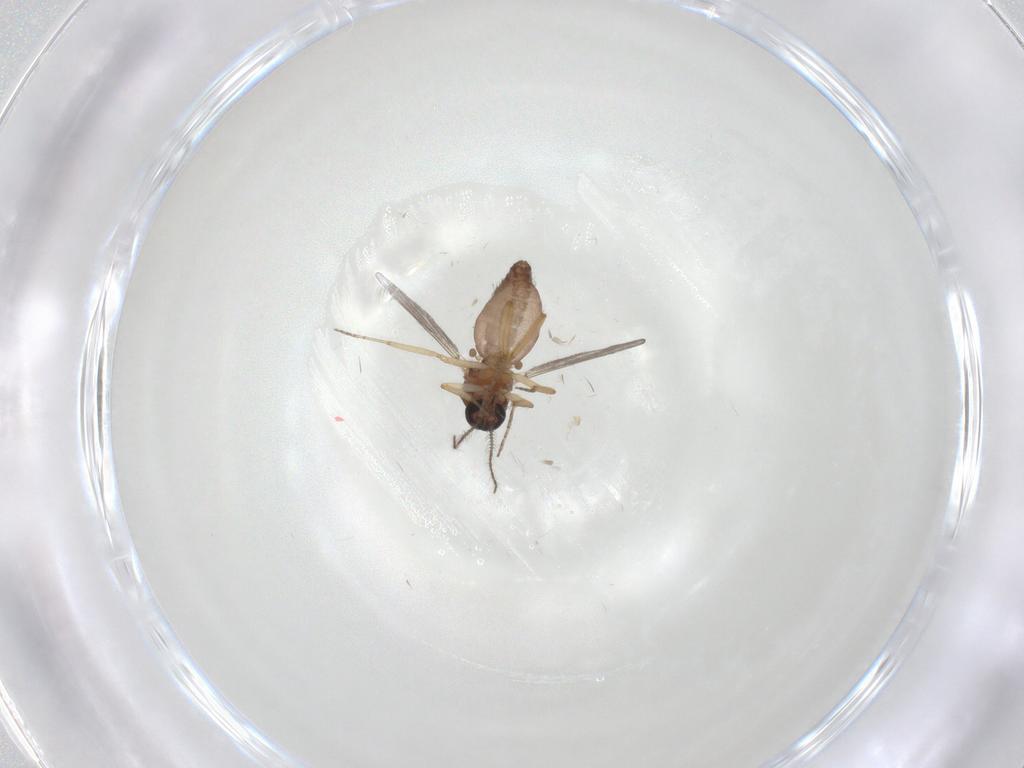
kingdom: Animalia
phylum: Arthropoda
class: Insecta
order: Diptera
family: Ceratopogonidae
